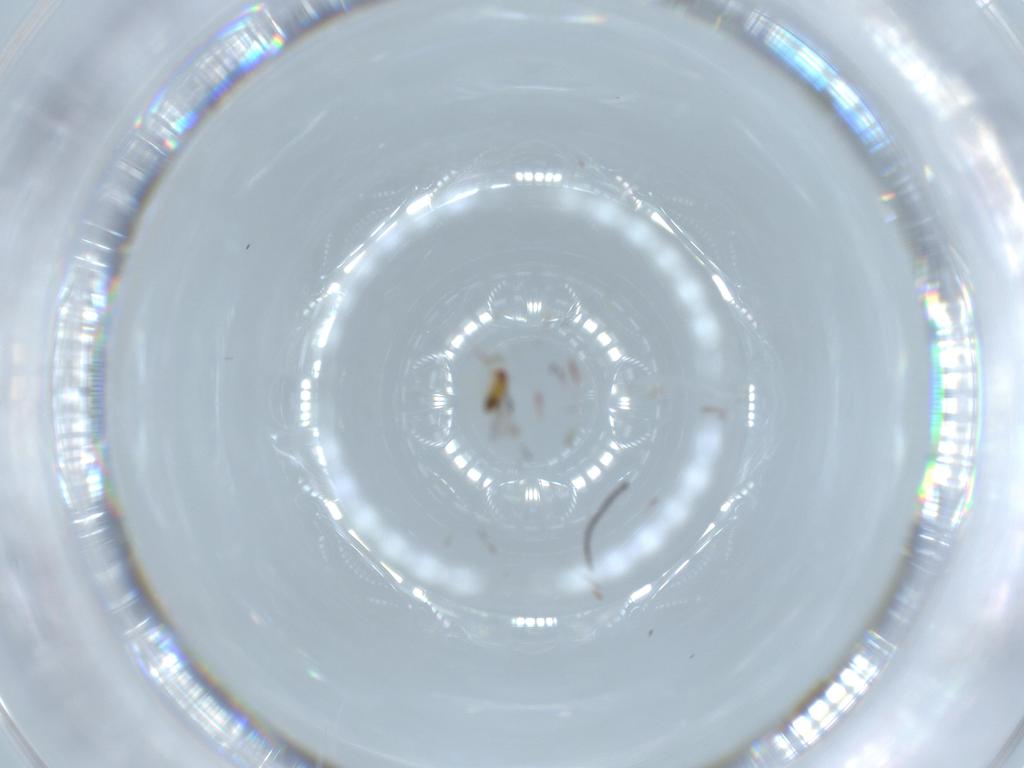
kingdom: Animalia
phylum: Arthropoda
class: Insecta
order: Hymenoptera
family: Trichogrammatidae
